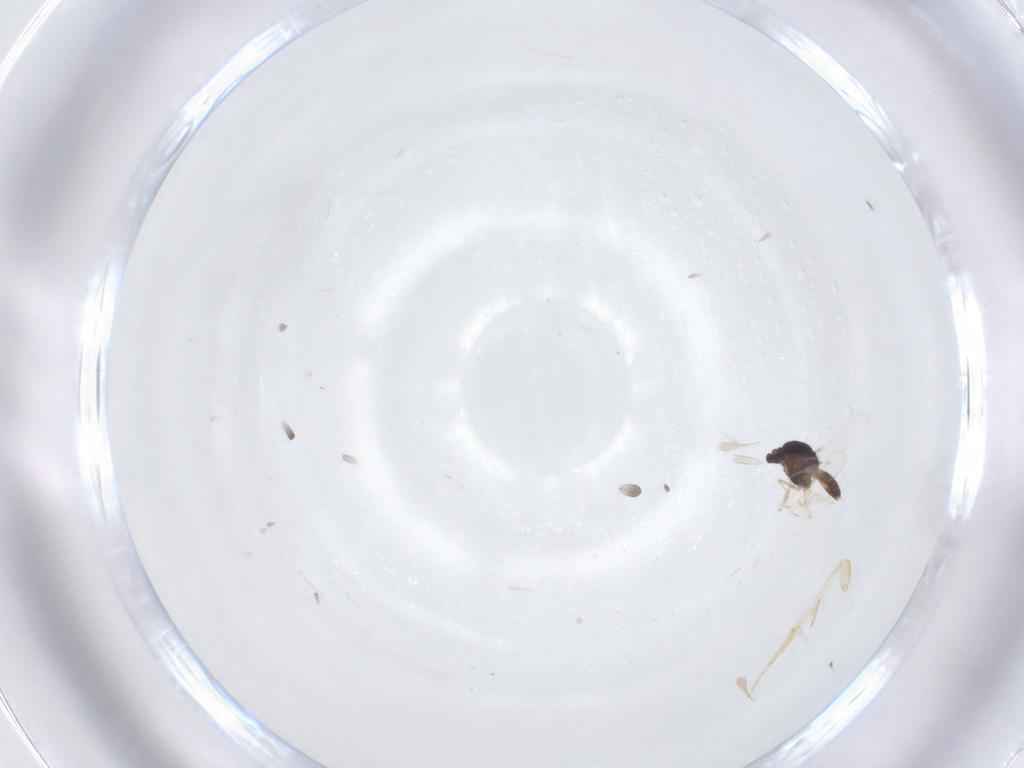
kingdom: Animalia
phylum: Arthropoda
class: Insecta
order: Diptera
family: Chironomidae
